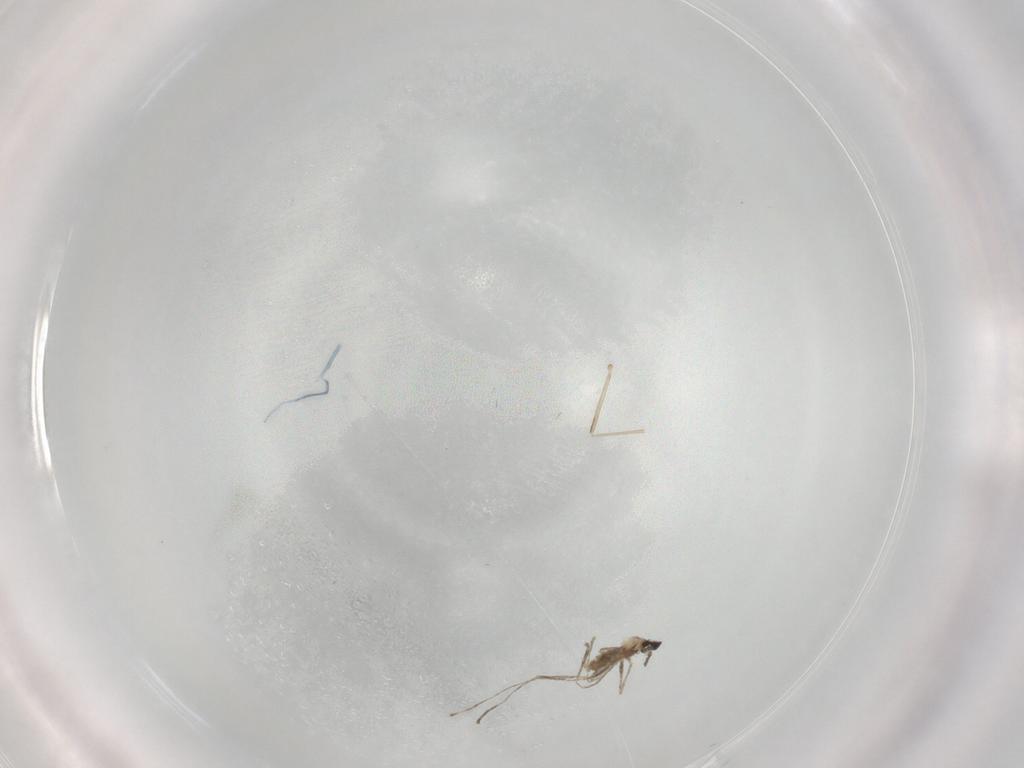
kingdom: Animalia
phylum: Arthropoda
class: Insecta
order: Diptera
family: Cecidomyiidae
